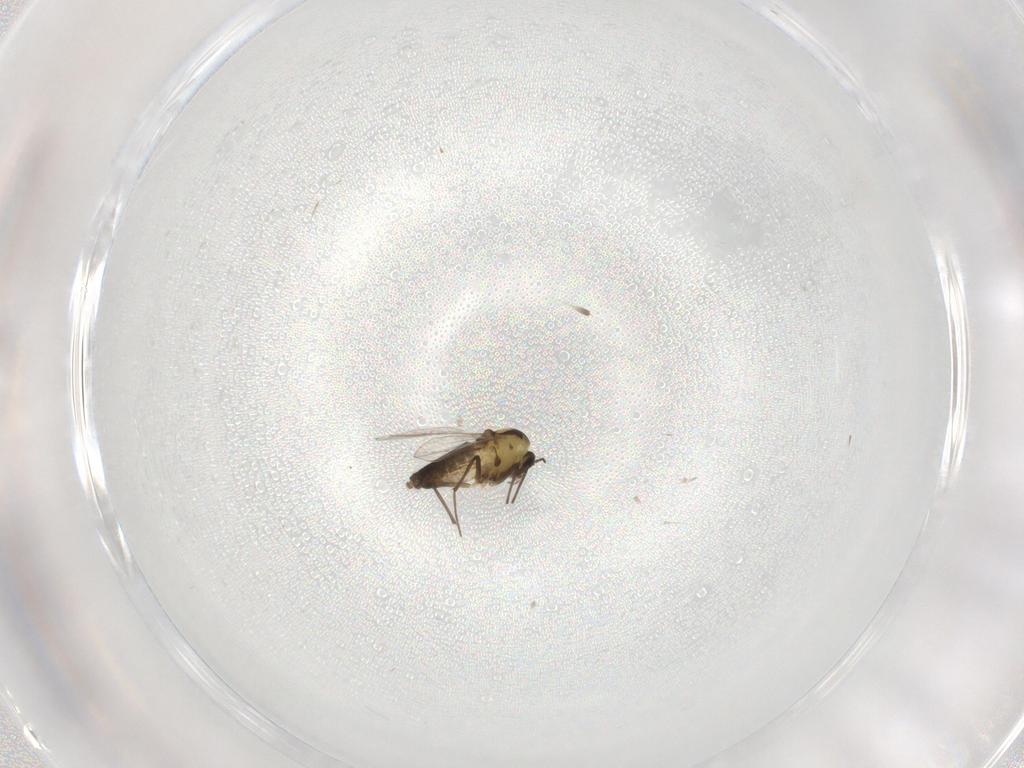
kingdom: Animalia
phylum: Arthropoda
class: Insecta
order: Diptera
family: Chironomidae
